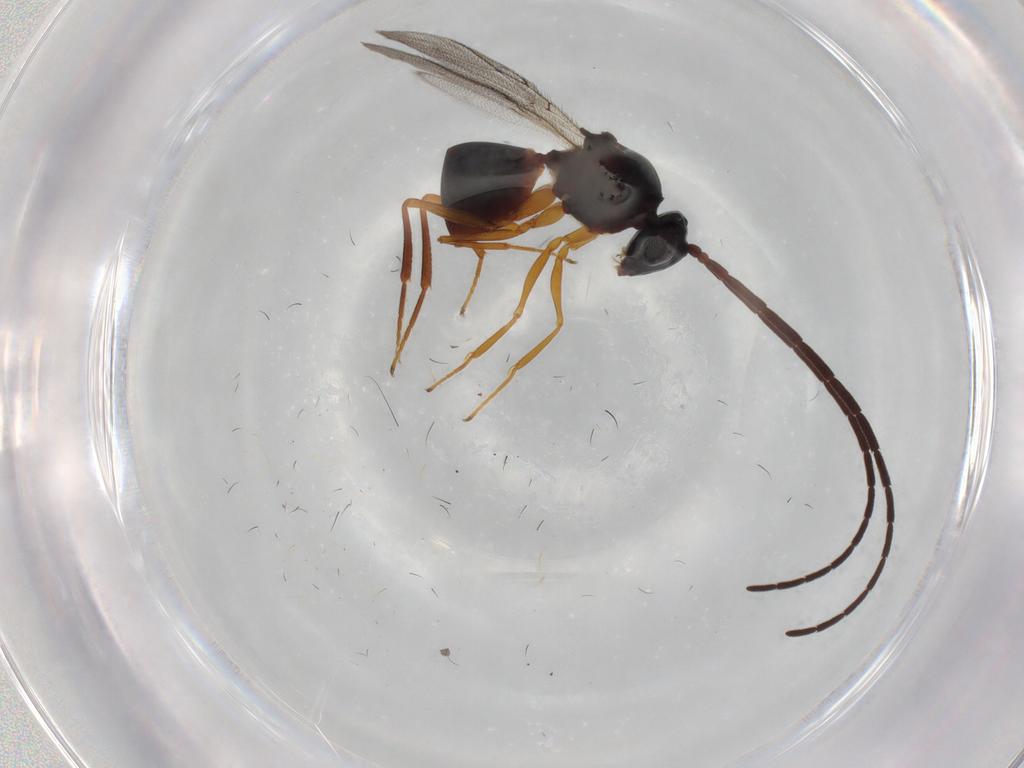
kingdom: Animalia
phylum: Arthropoda
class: Insecta
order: Hymenoptera
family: Figitidae
